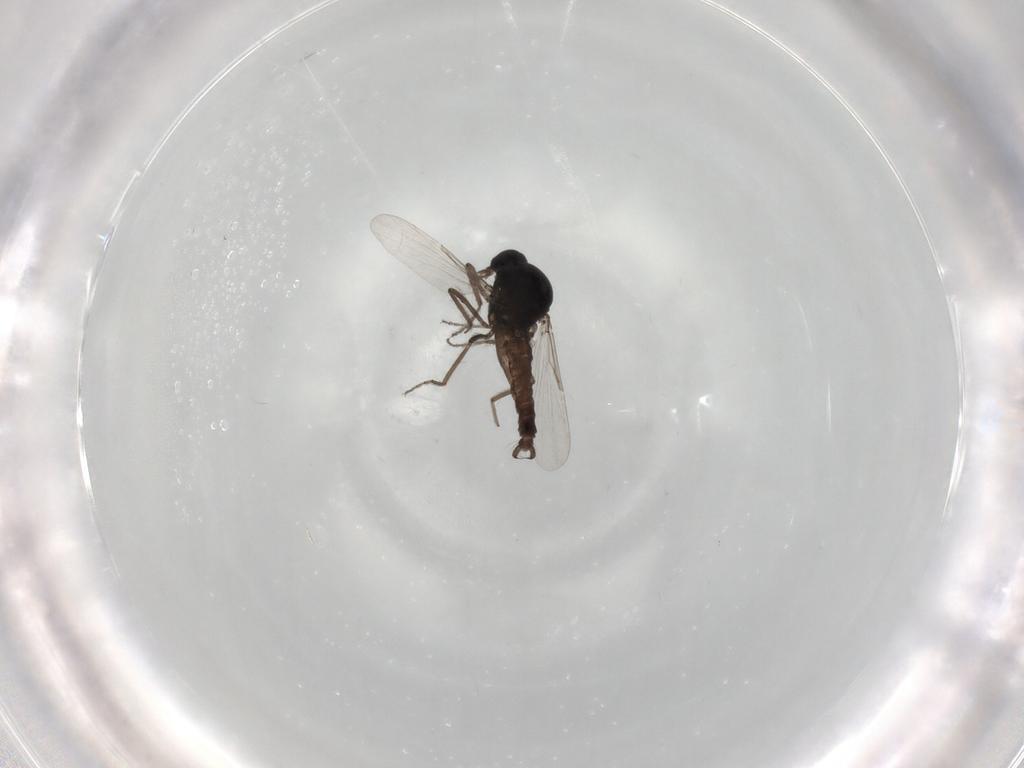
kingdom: Animalia
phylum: Arthropoda
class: Insecta
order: Diptera
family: Ceratopogonidae
